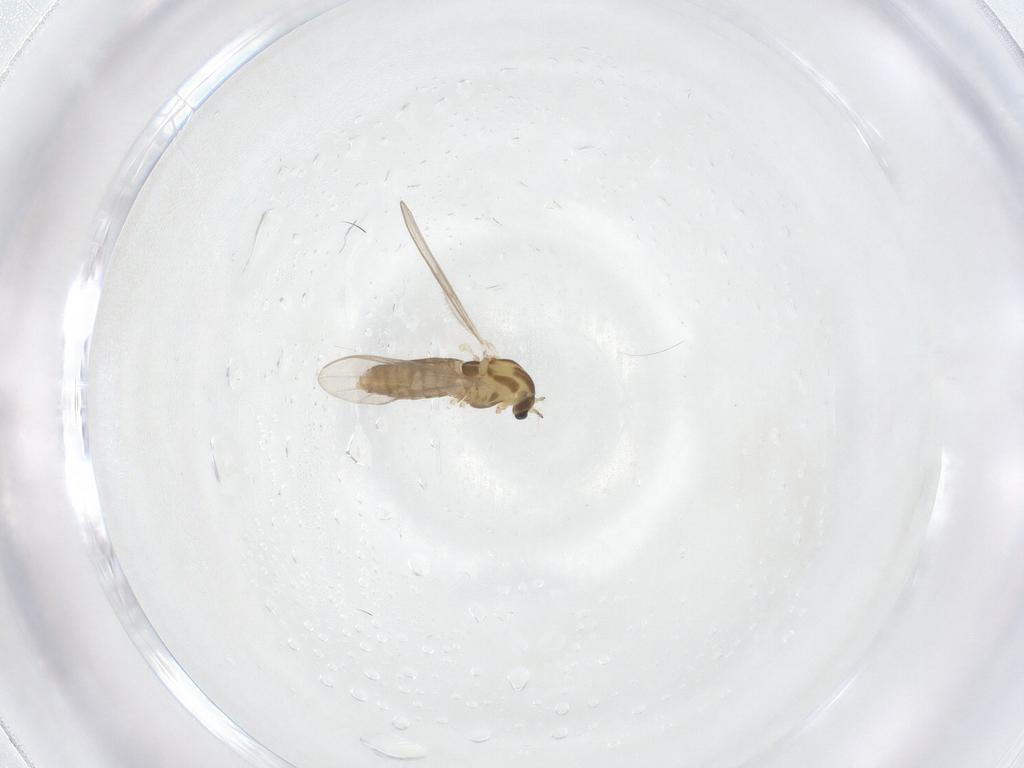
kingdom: Animalia
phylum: Arthropoda
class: Insecta
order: Diptera
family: Chironomidae
